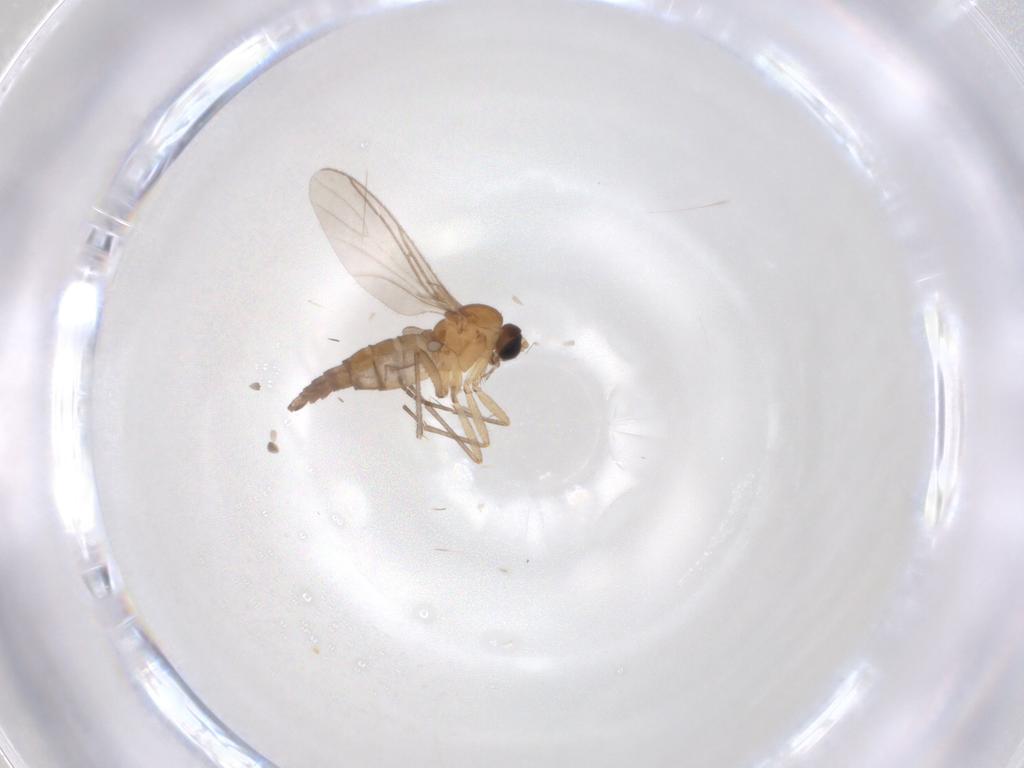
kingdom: Animalia
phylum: Arthropoda
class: Insecta
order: Diptera
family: Sciaridae
